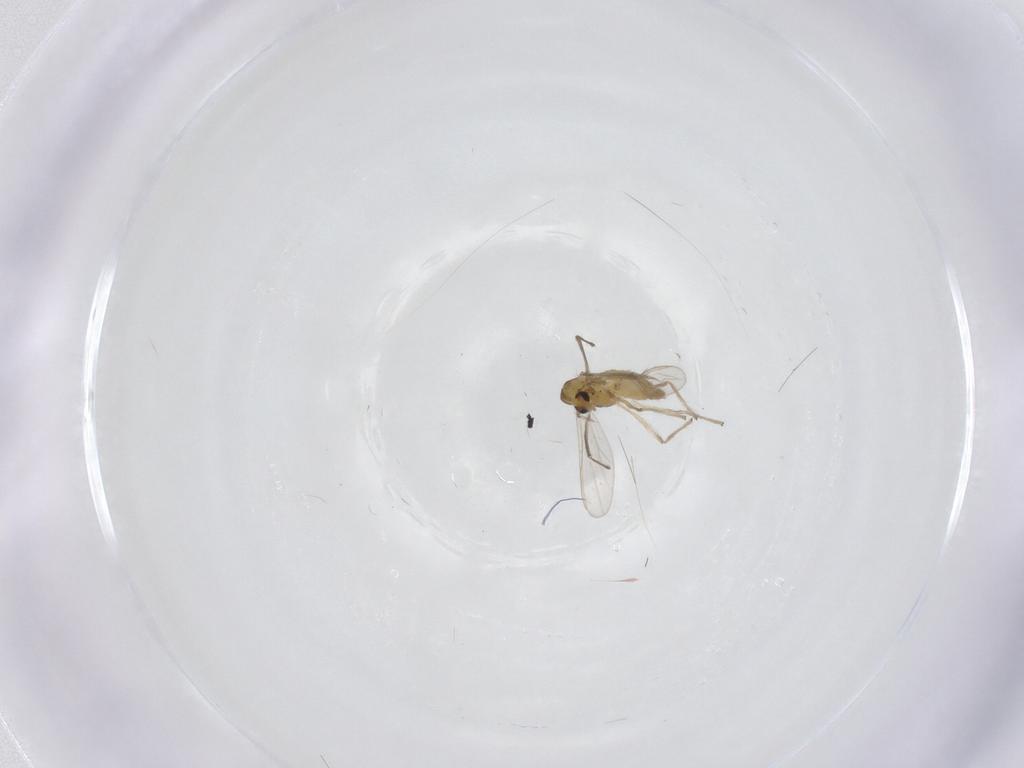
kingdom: Animalia
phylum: Arthropoda
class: Insecta
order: Diptera
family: Chironomidae
